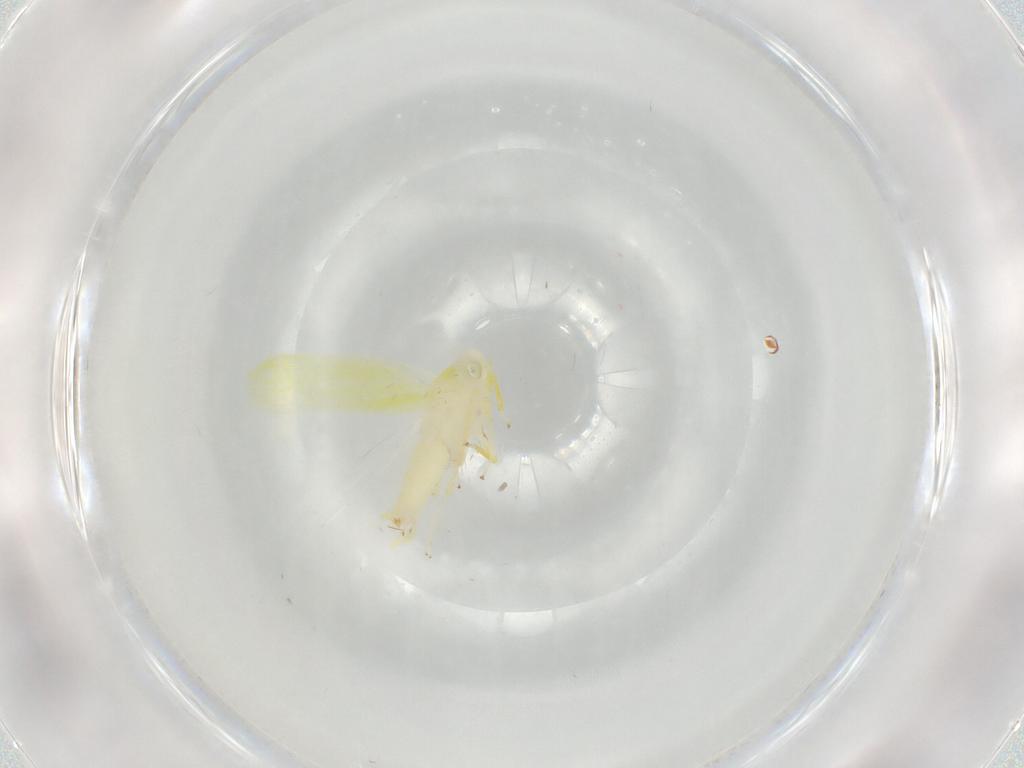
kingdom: Animalia
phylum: Arthropoda
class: Insecta
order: Hemiptera
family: Cicadellidae
